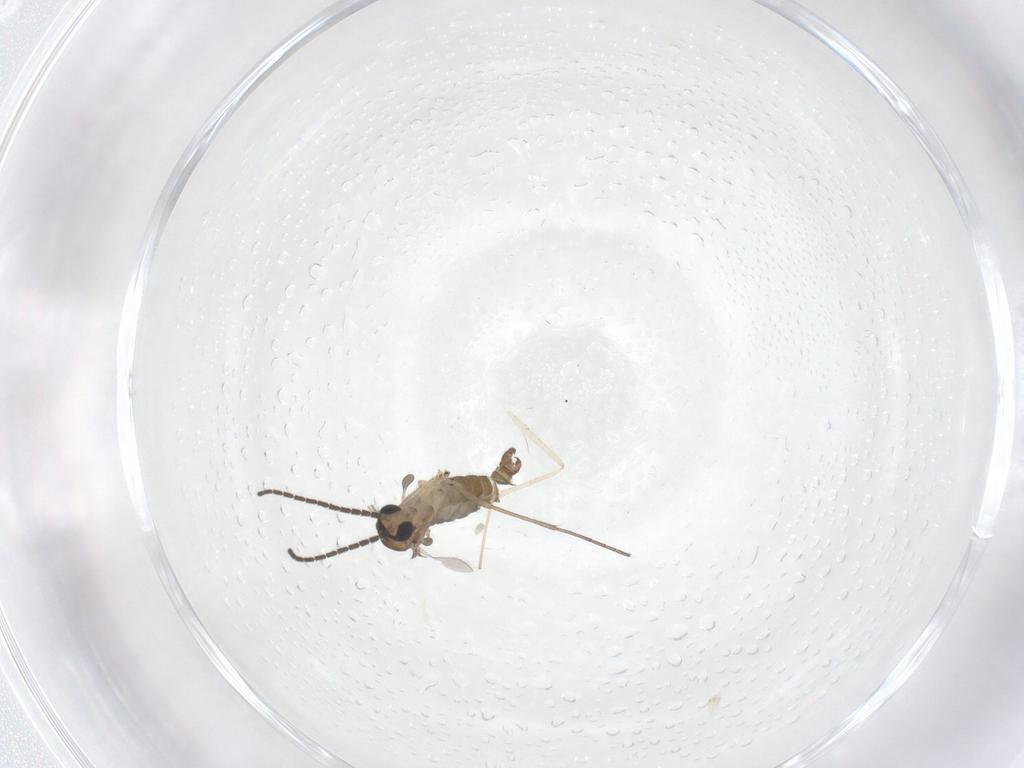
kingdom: Animalia
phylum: Arthropoda
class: Insecta
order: Diptera
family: Sciaridae
